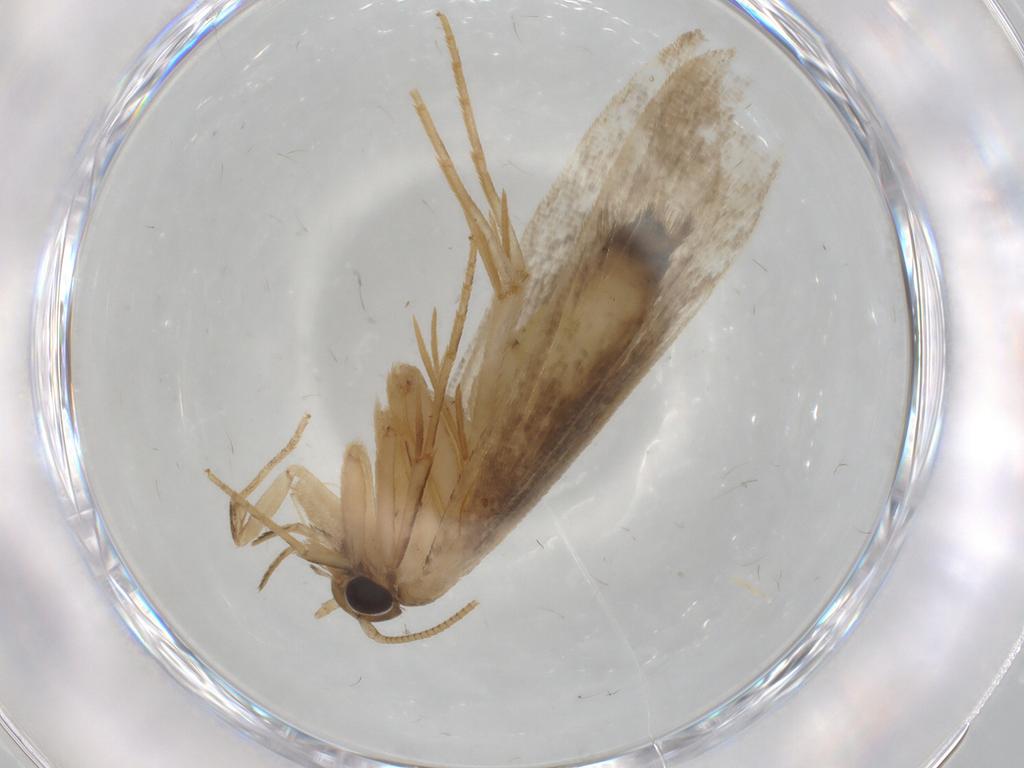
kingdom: Animalia
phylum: Arthropoda
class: Insecta
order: Lepidoptera
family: Tineidae
